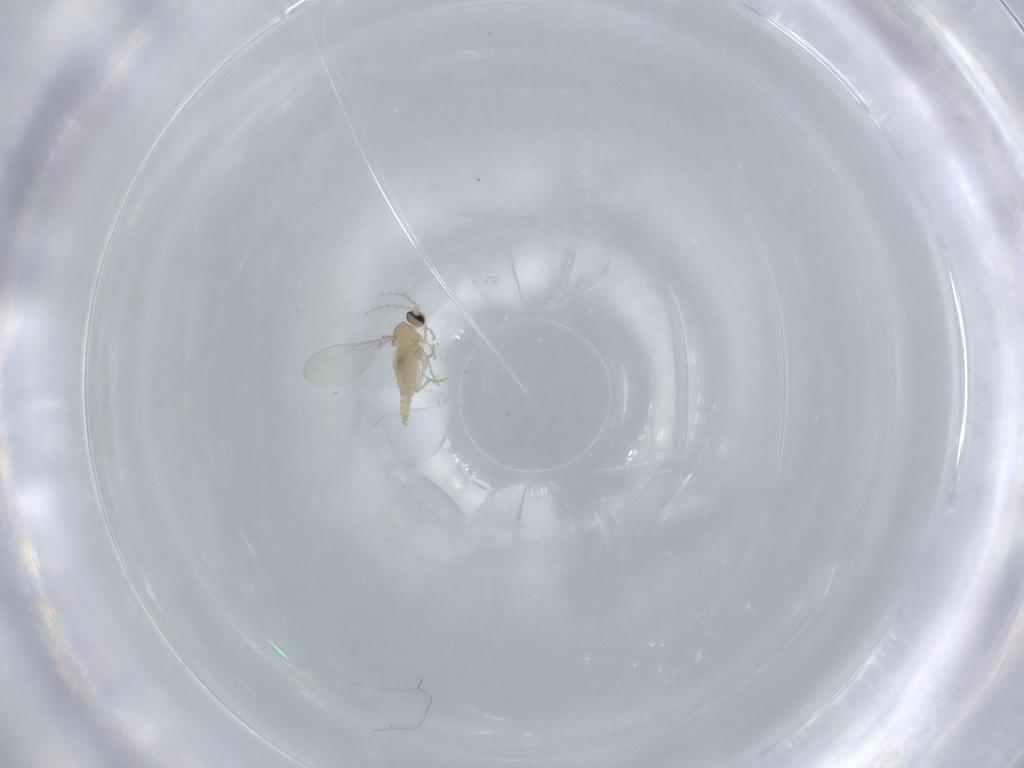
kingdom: Animalia
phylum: Arthropoda
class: Insecta
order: Diptera
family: Cecidomyiidae
